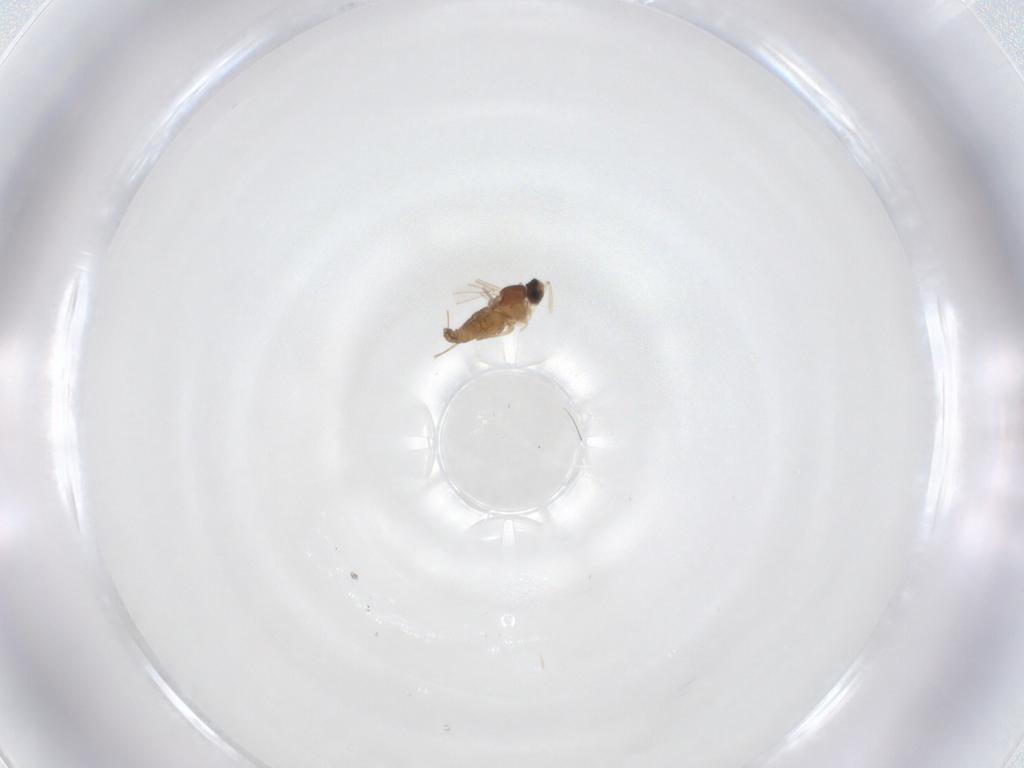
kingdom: Animalia
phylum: Arthropoda
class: Insecta
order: Diptera
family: Cecidomyiidae
